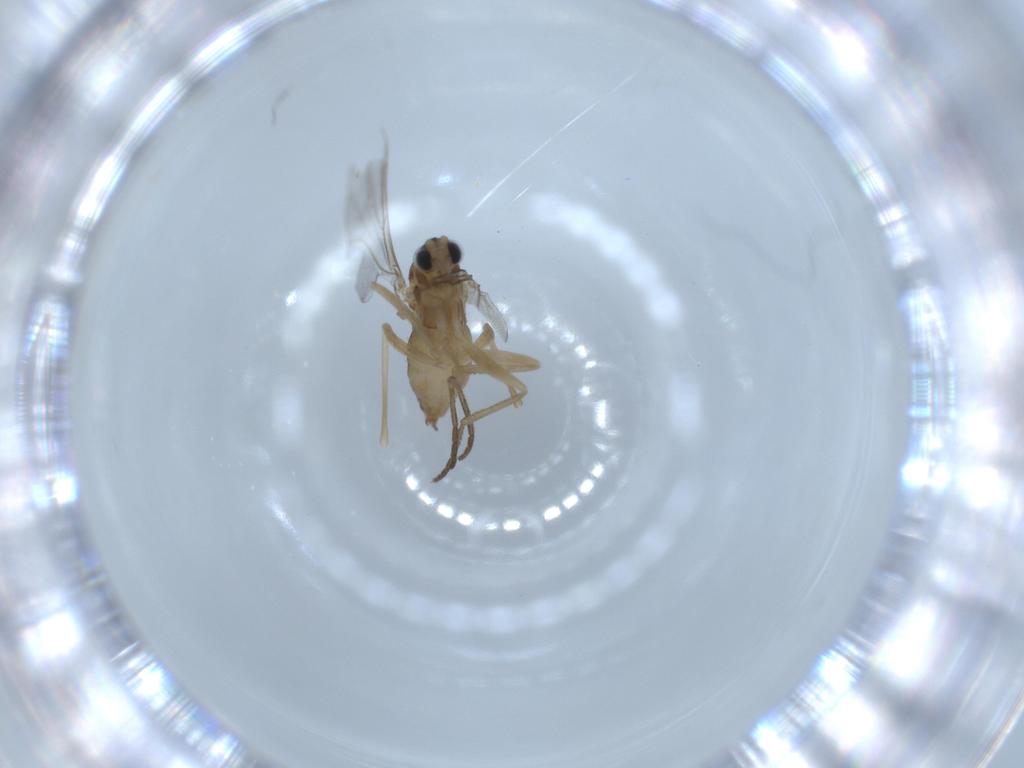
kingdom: Animalia
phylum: Arthropoda
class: Insecta
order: Diptera
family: Cecidomyiidae
